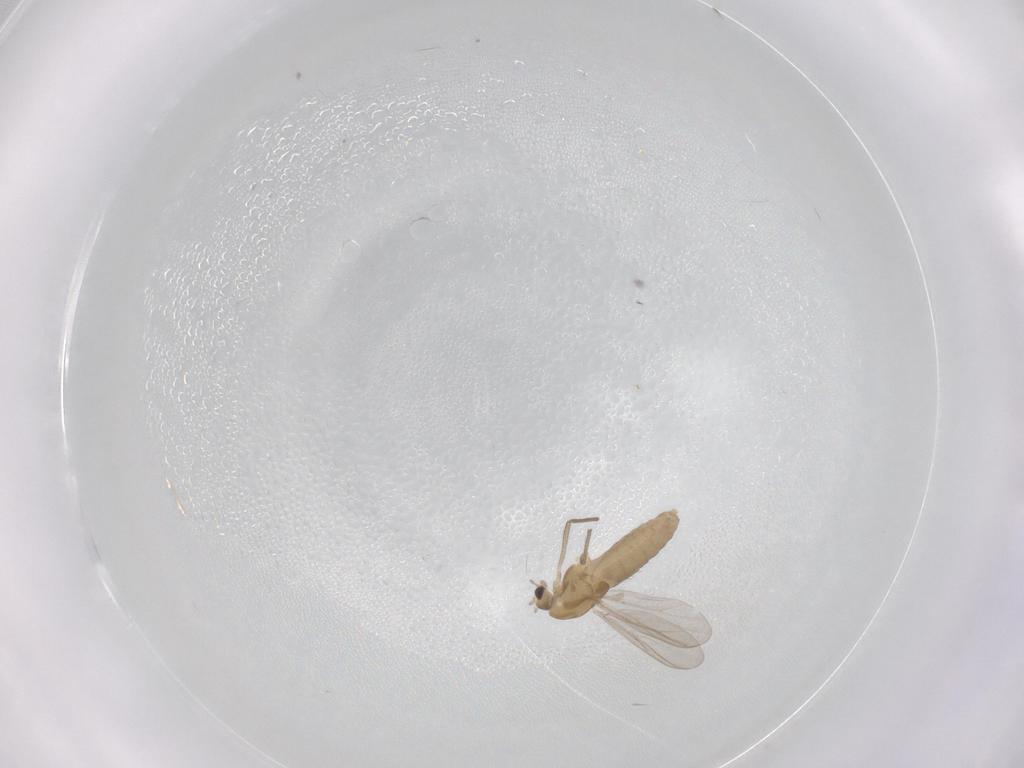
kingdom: Animalia
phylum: Arthropoda
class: Insecta
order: Diptera
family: Chironomidae
